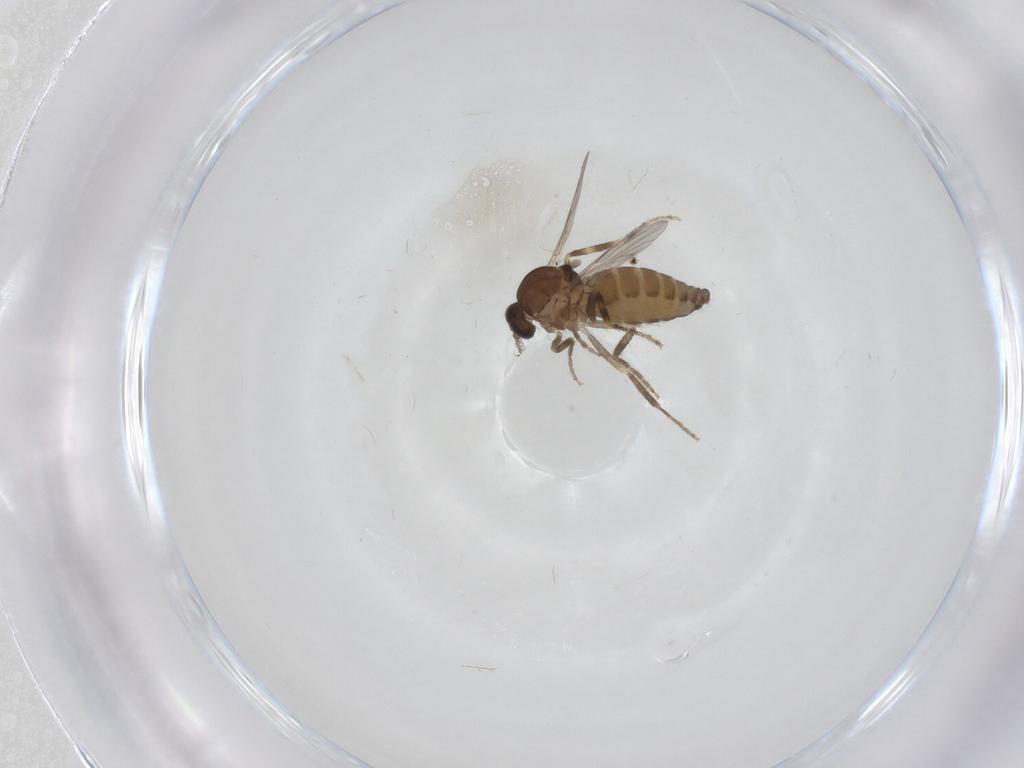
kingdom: Animalia
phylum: Arthropoda
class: Insecta
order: Diptera
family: Ceratopogonidae
